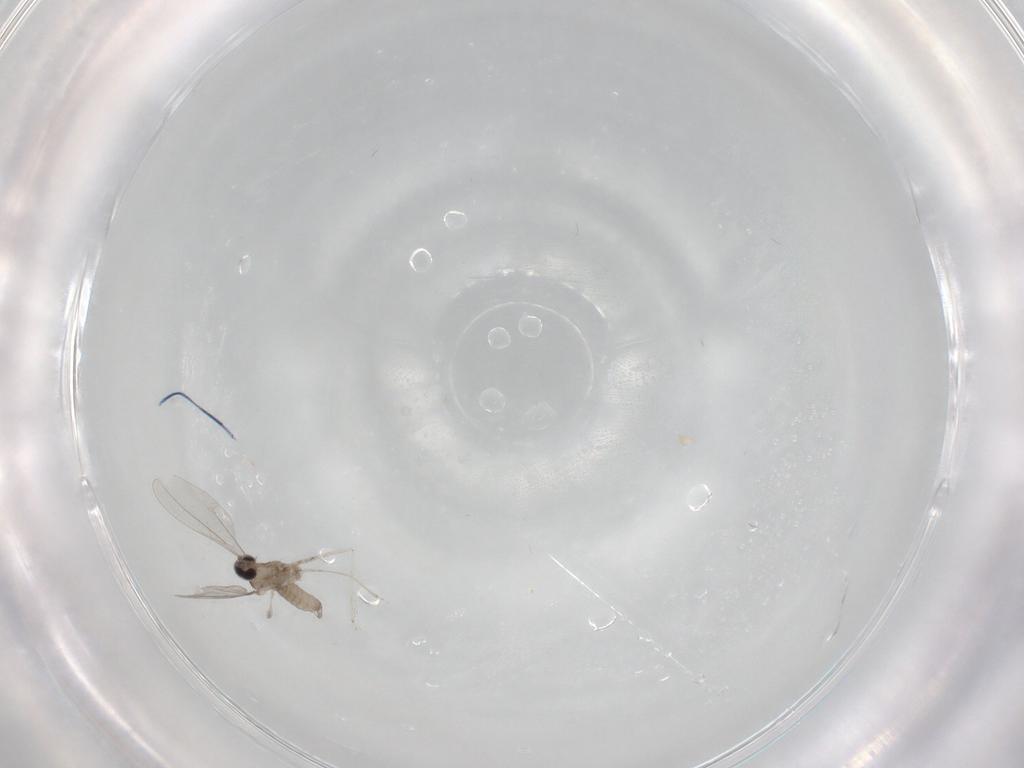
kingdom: Animalia
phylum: Arthropoda
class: Insecta
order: Diptera
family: Cecidomyiidae
